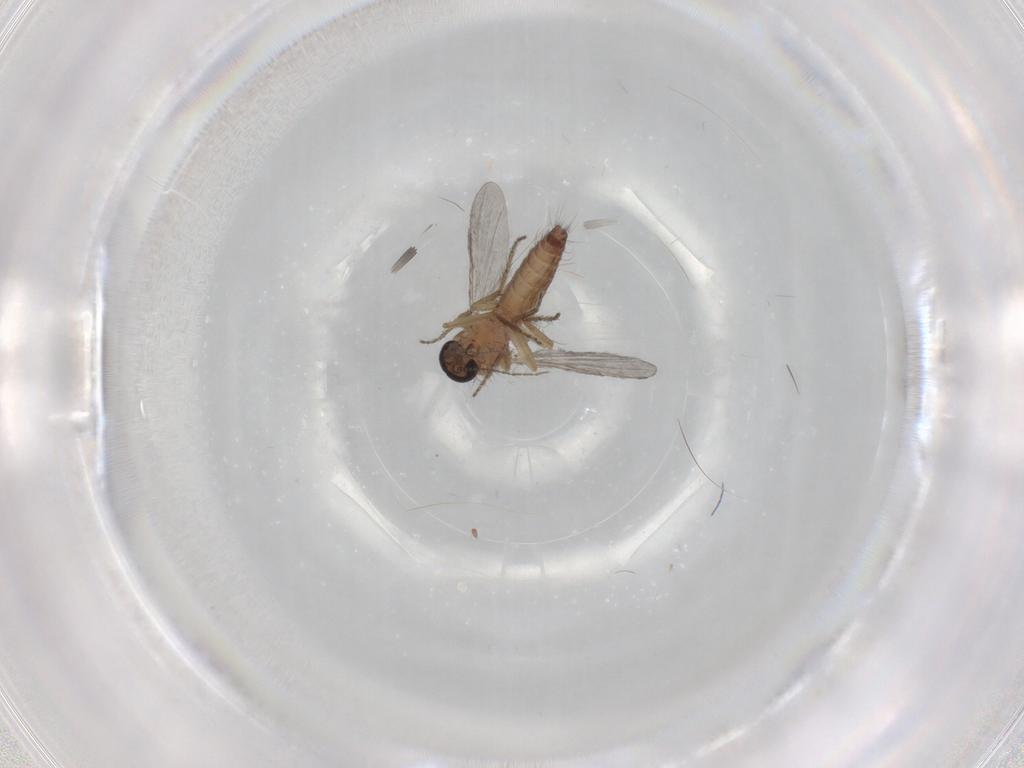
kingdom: Animalia
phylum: Arthropoda
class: Insecta
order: Diptera
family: Ceratopogonidae
